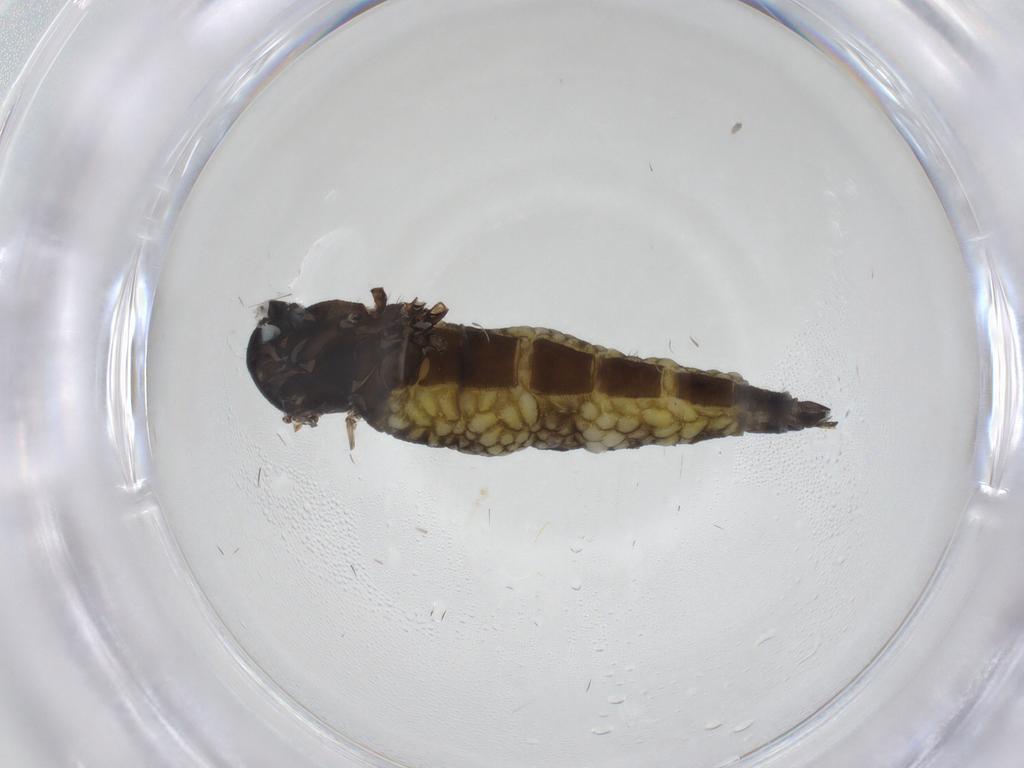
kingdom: Animalia
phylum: Arthropoda
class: Insecta
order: Diptera
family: Sciaridae
